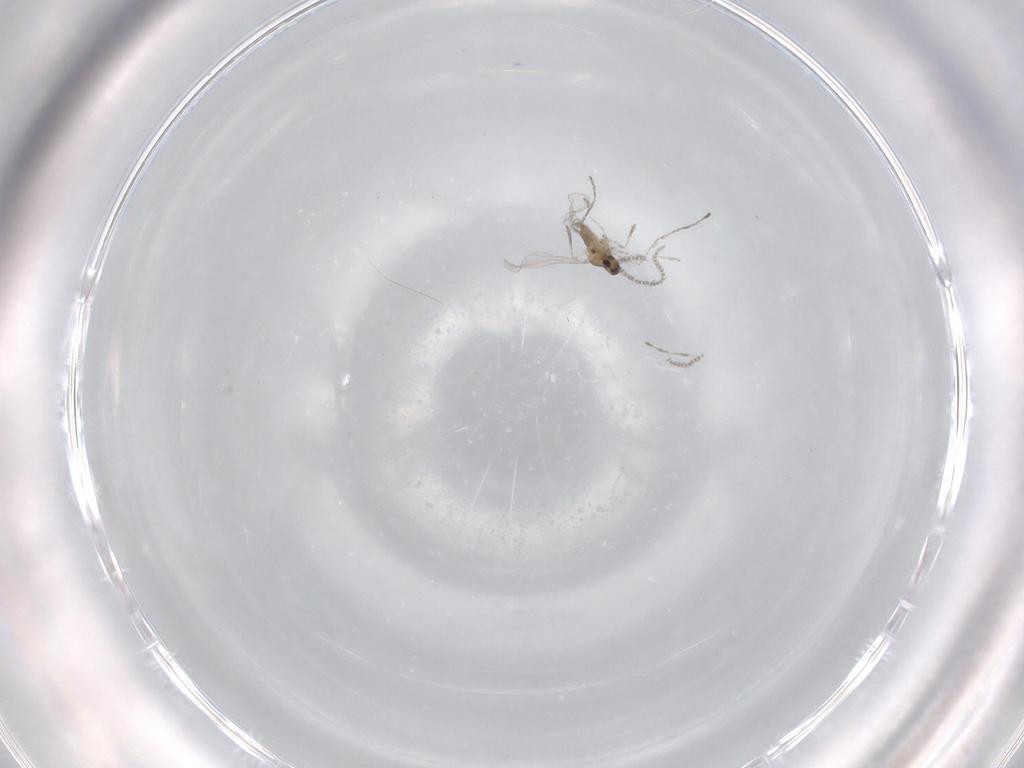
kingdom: Animalia
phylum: Arthropoda
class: Insecta
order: Diptera
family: Cecidomyiidae
